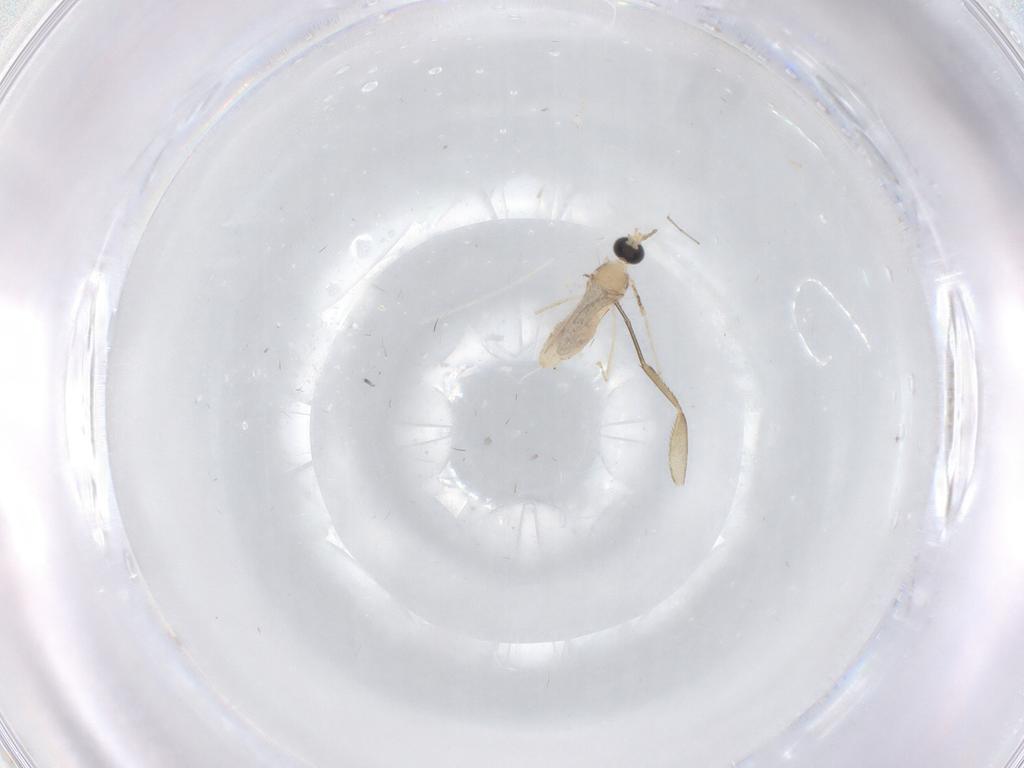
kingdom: Animalia
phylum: Arthropoda
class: Insecta
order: Diptera
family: Cecidomyiidae
